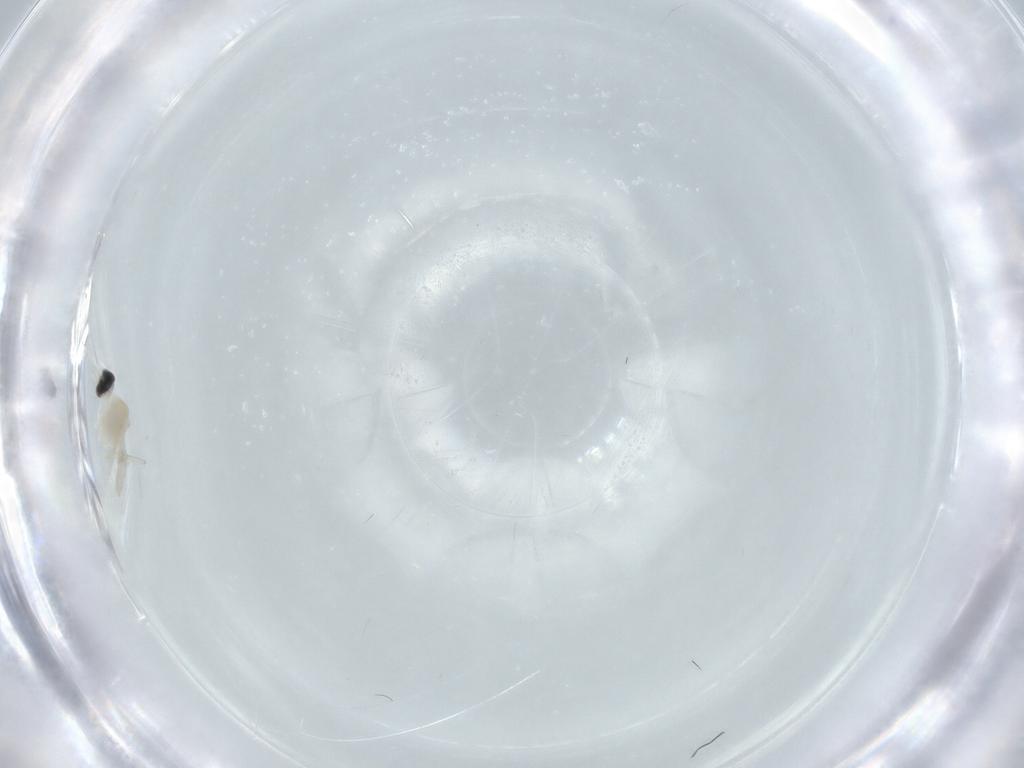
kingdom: Animalia
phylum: Arthropoda
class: Insecta
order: Diptera
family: Cecidomyiidae
